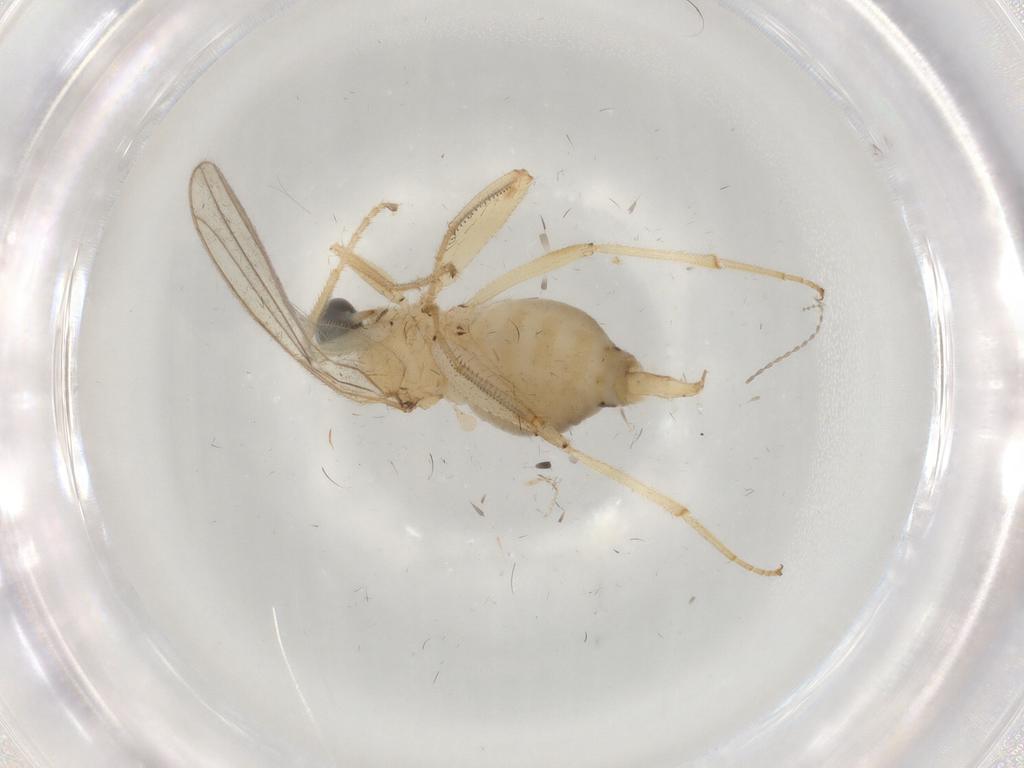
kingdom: Animalia
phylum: Arthropoda
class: Insecta
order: Diptera
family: Hybotidae
